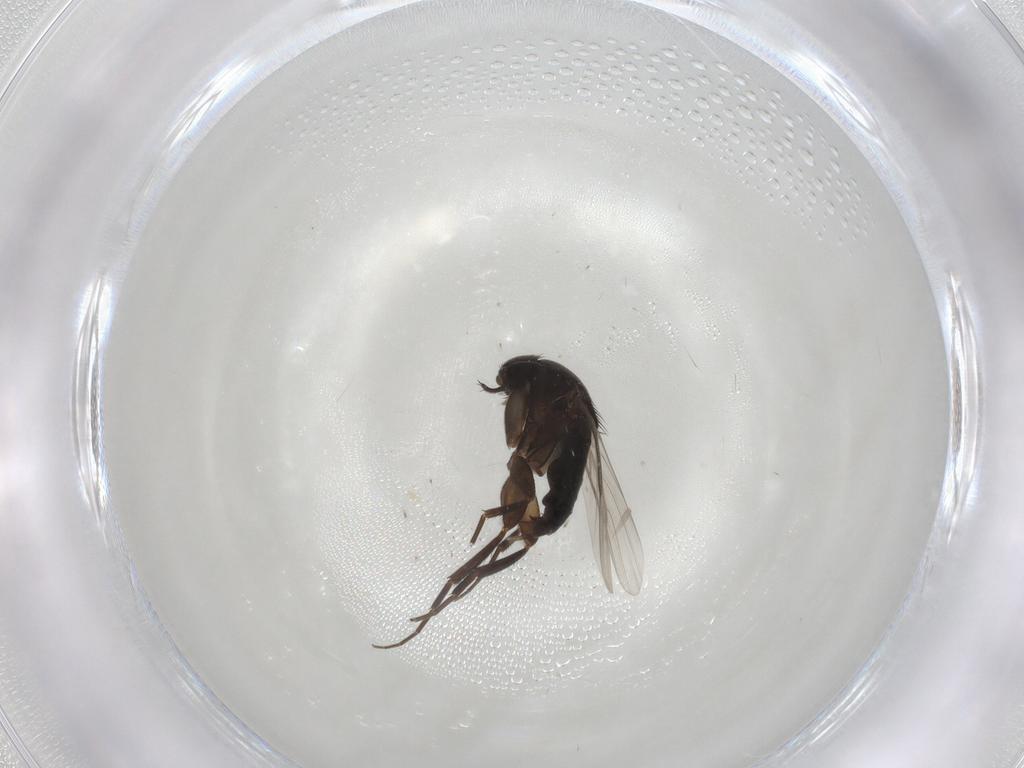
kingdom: Animalia
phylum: Arthropoda
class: Insecta
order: Diptera
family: Phoridae
